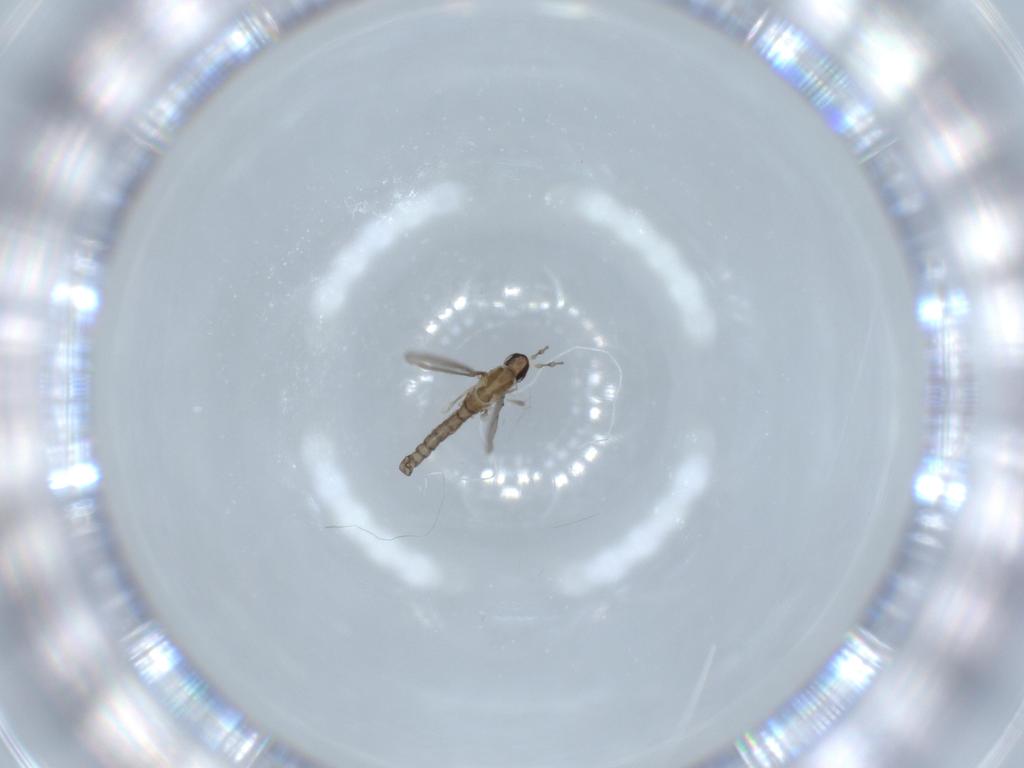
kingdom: Animalia
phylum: Arthropoda
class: Insecta
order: Diptera
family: Cecidomyiidae
